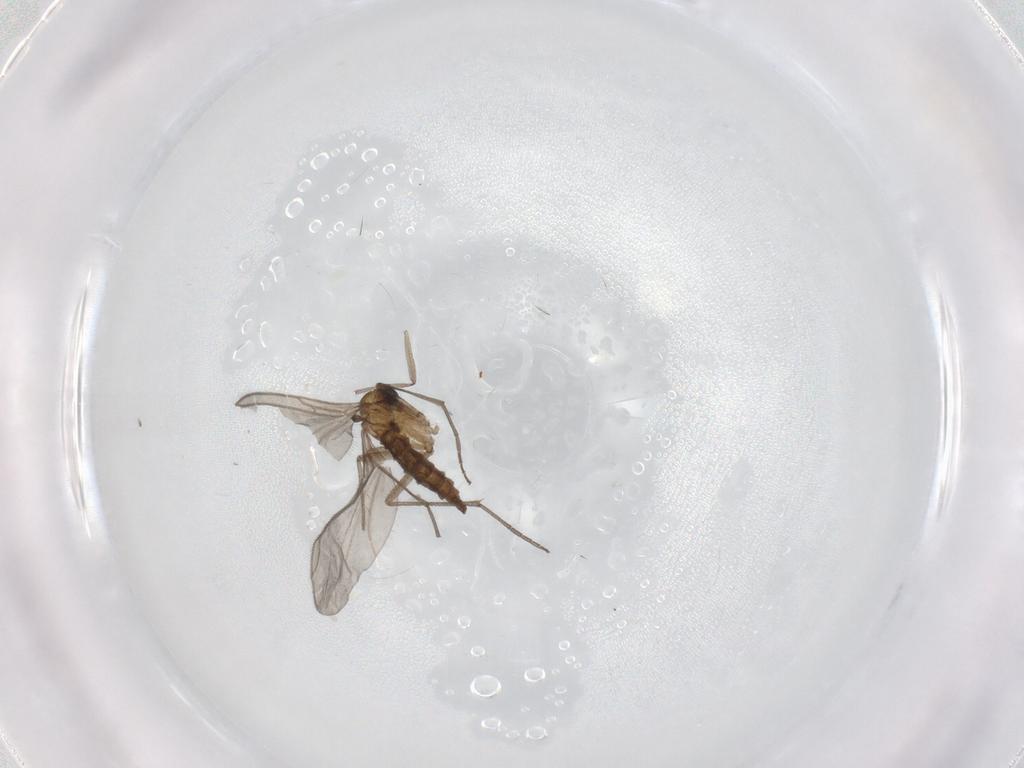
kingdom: Animalia
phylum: Arthropoda
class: Insecta
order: Diptera
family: Sciaridae
